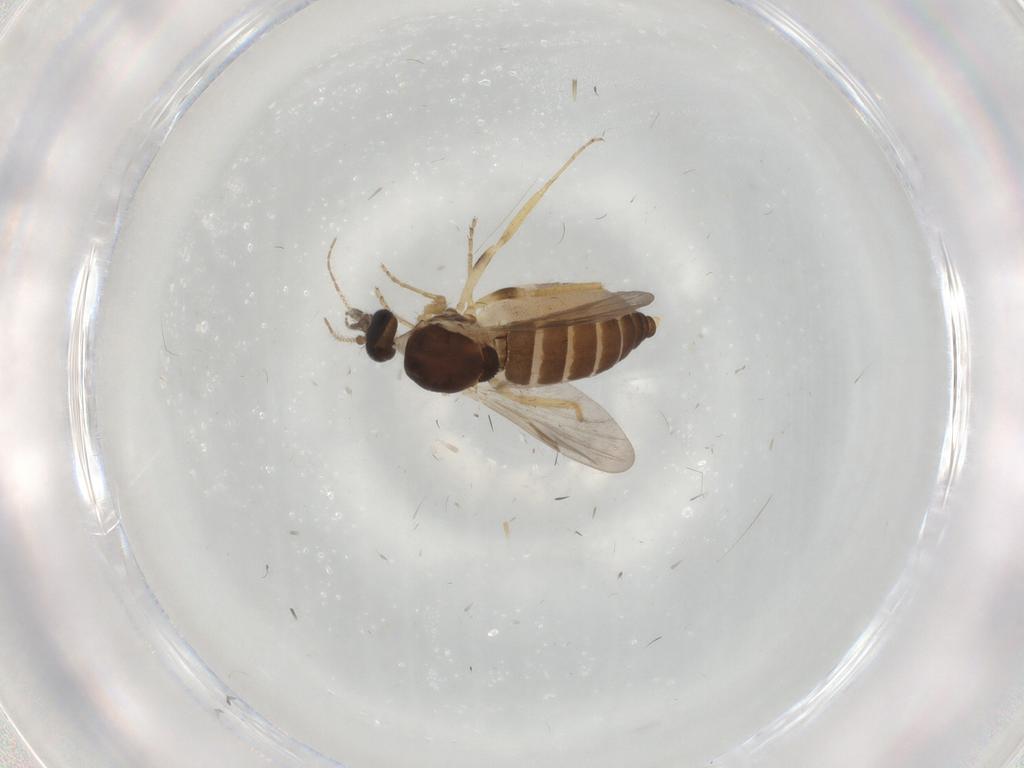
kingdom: Animalia
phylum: Arthropoda
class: Insecta
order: Diptera
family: Ceratopogonidae
